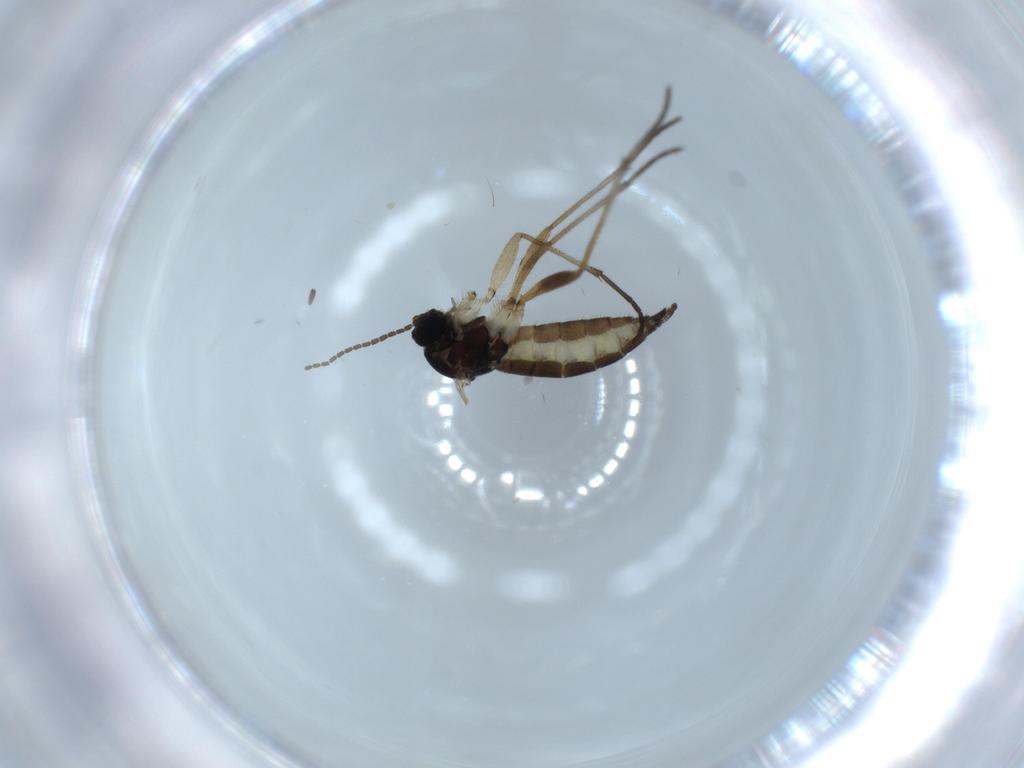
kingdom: Animalia
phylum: Arthropoda
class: Insecta
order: Diptera
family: Sciaridae
